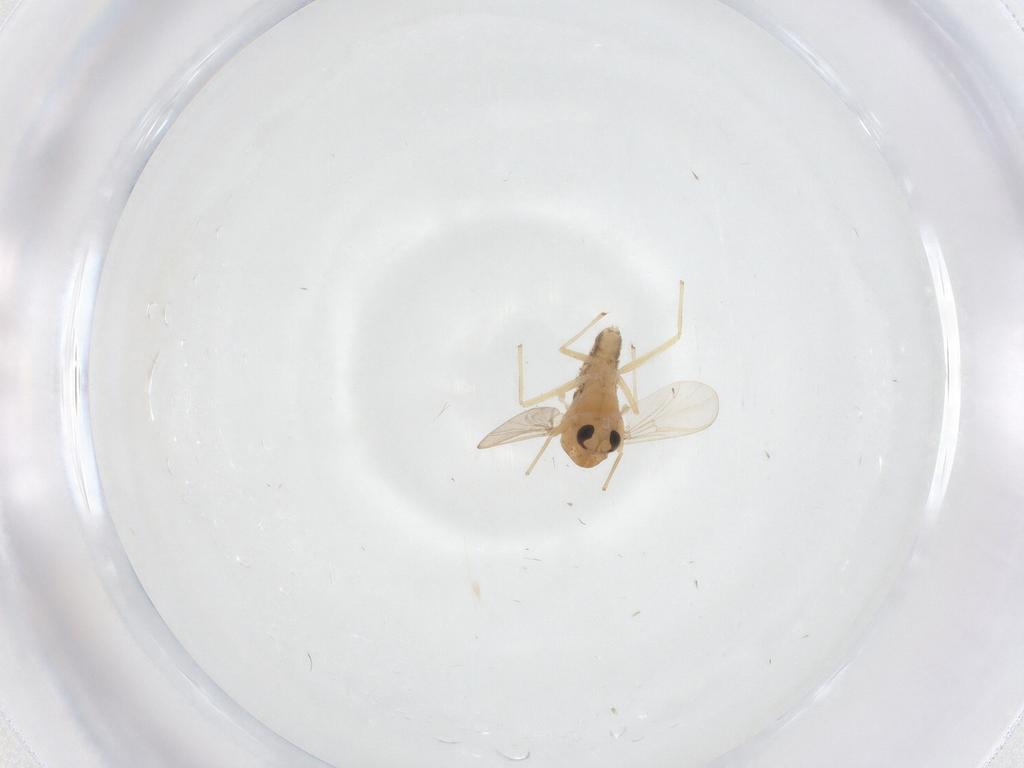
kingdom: Animalia
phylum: Arthropoda
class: Insecta
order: Diptera
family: Chironomidae
